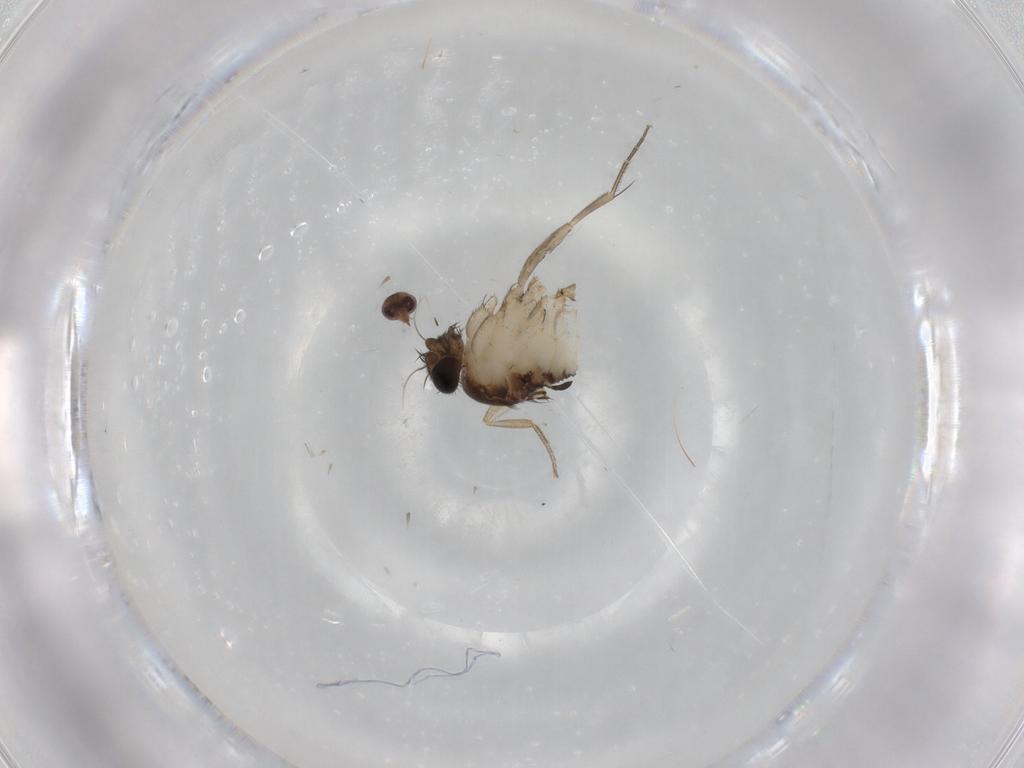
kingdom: Animalia
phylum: Arthropoda
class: Insecta
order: Diptera
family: Phoridae
